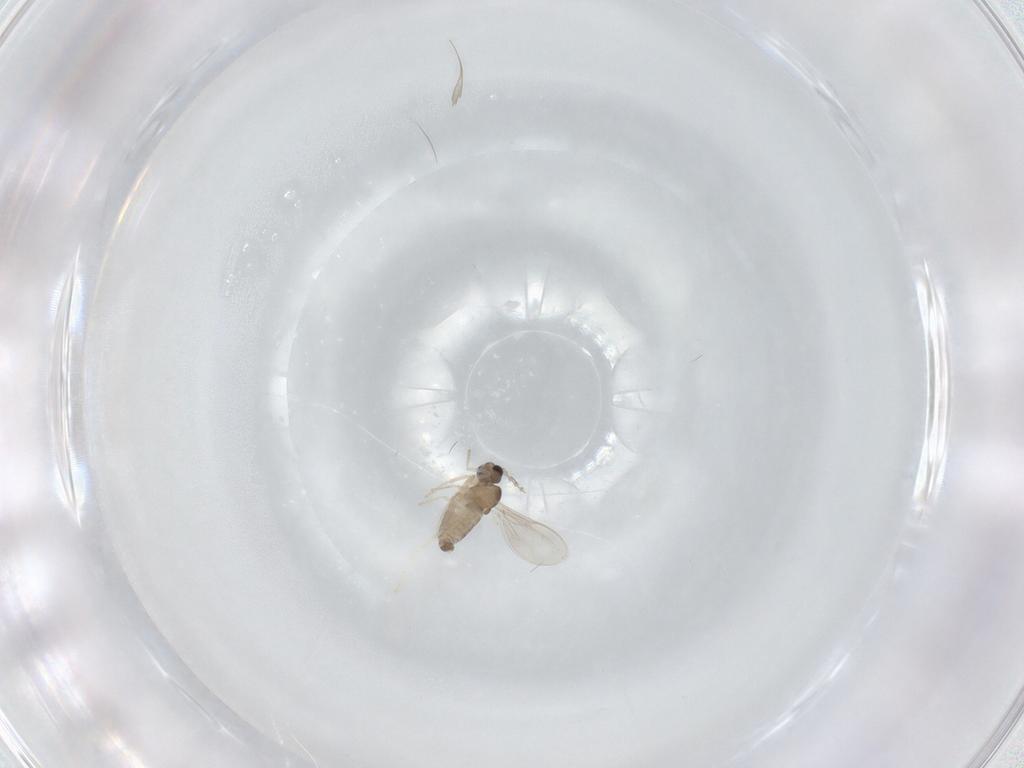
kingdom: Animalia
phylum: Arthropoda
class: Insecta
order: Diptera
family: Cecidomyiidae
